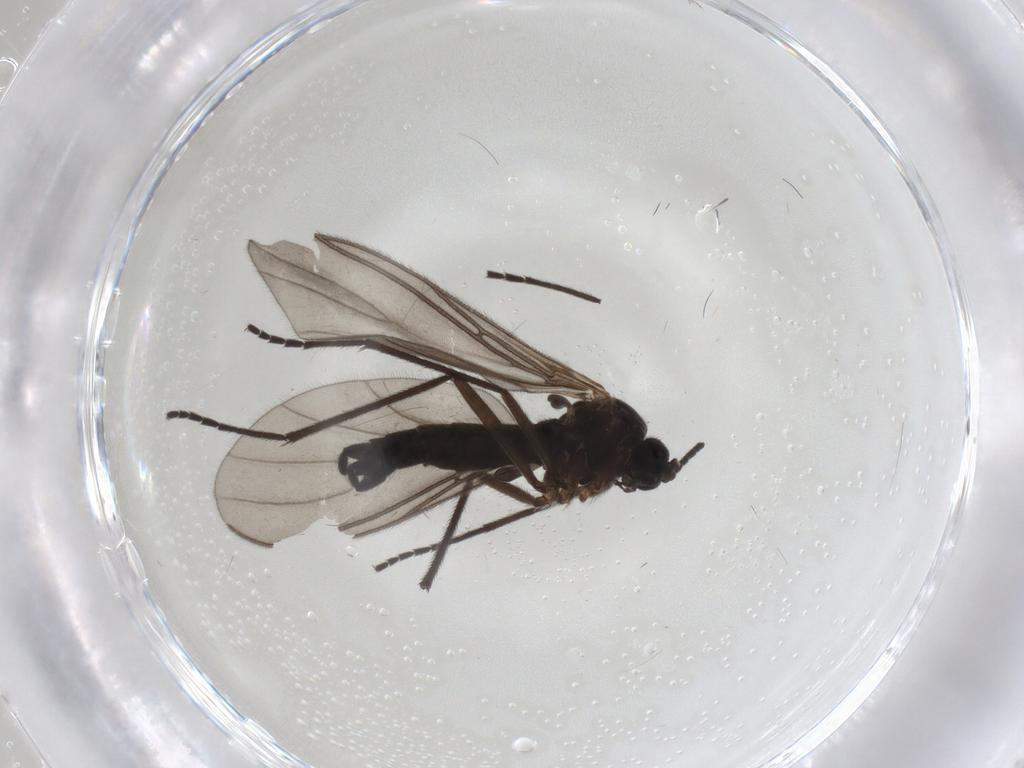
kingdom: Animalia
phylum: Arthropoda
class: Insecta
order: Diptera
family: Sciaridae
